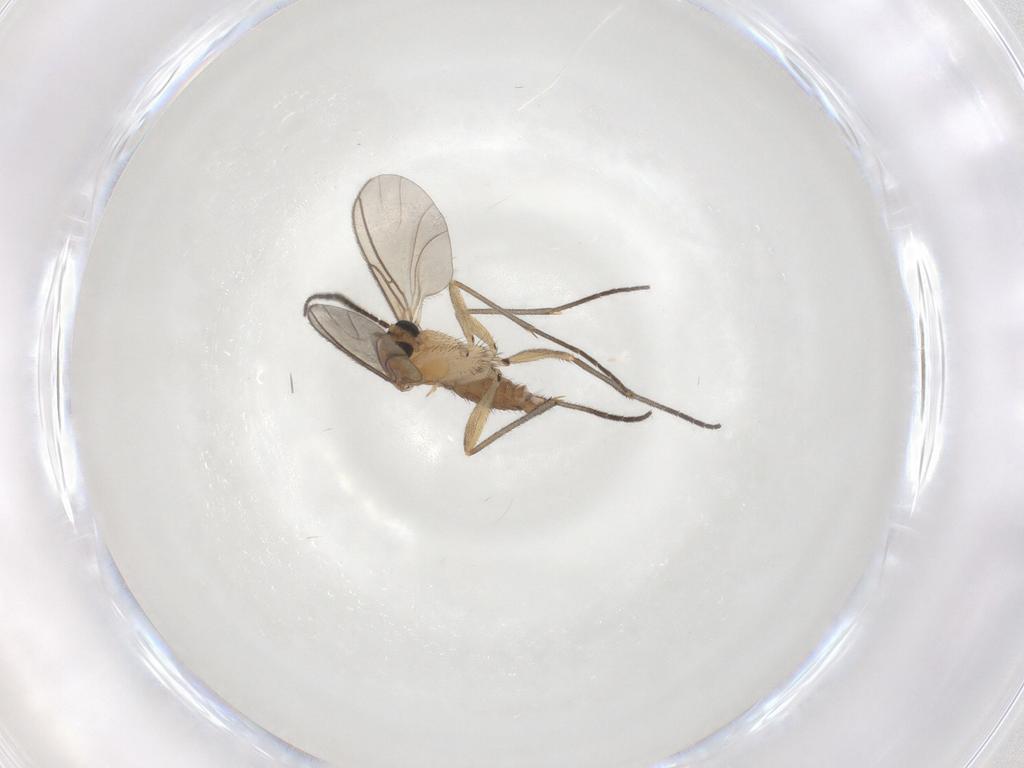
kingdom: Animalia
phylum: Arthropoda
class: Insecta
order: Diptera
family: Sciaridae
